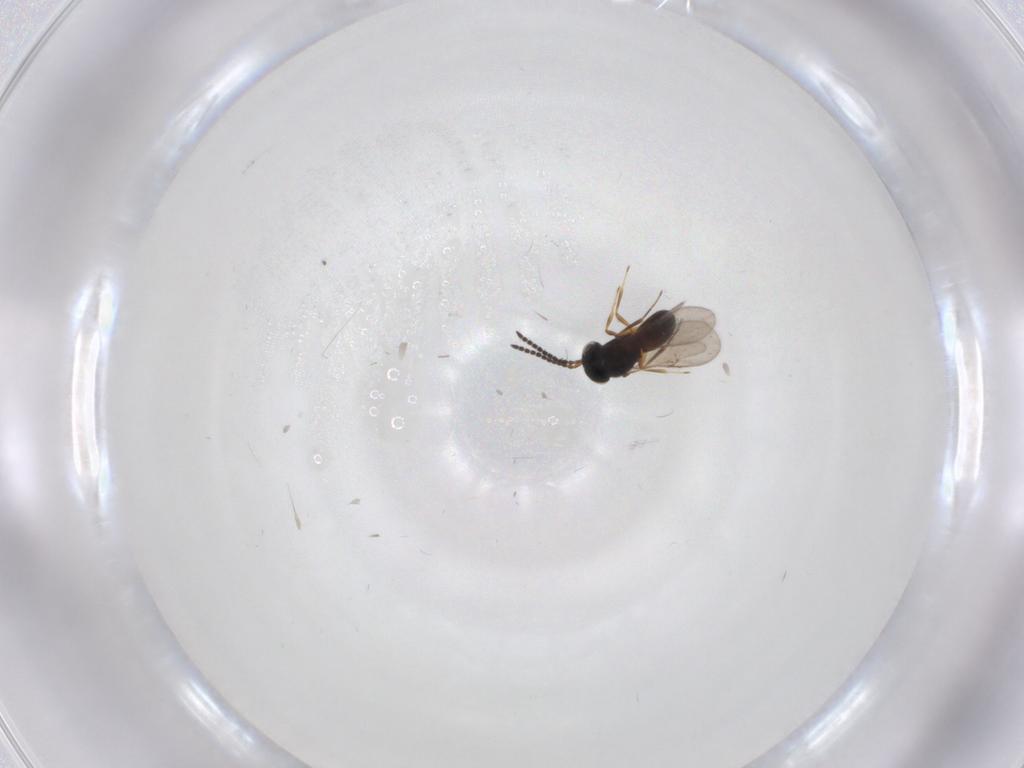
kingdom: Animalia
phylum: Arthropoda
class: Insecta
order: Hymenoptera
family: Scelionidae
